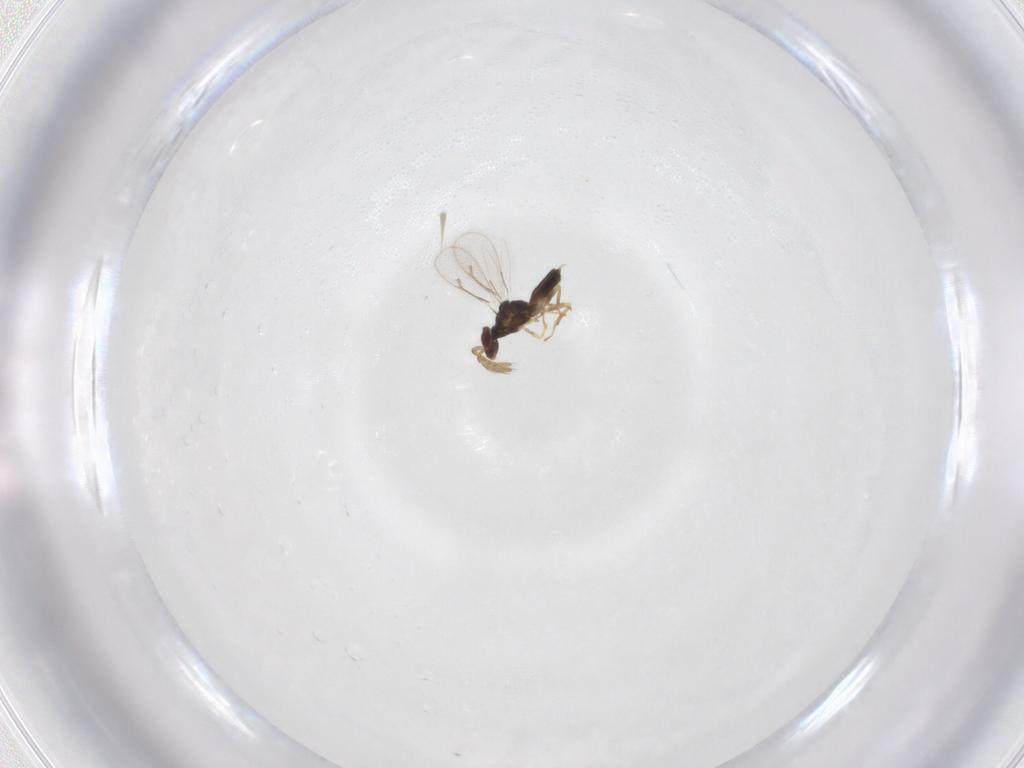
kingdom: Animalia
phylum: Arthropoda
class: Insecta
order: Hymenoptera
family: Eulophidae
